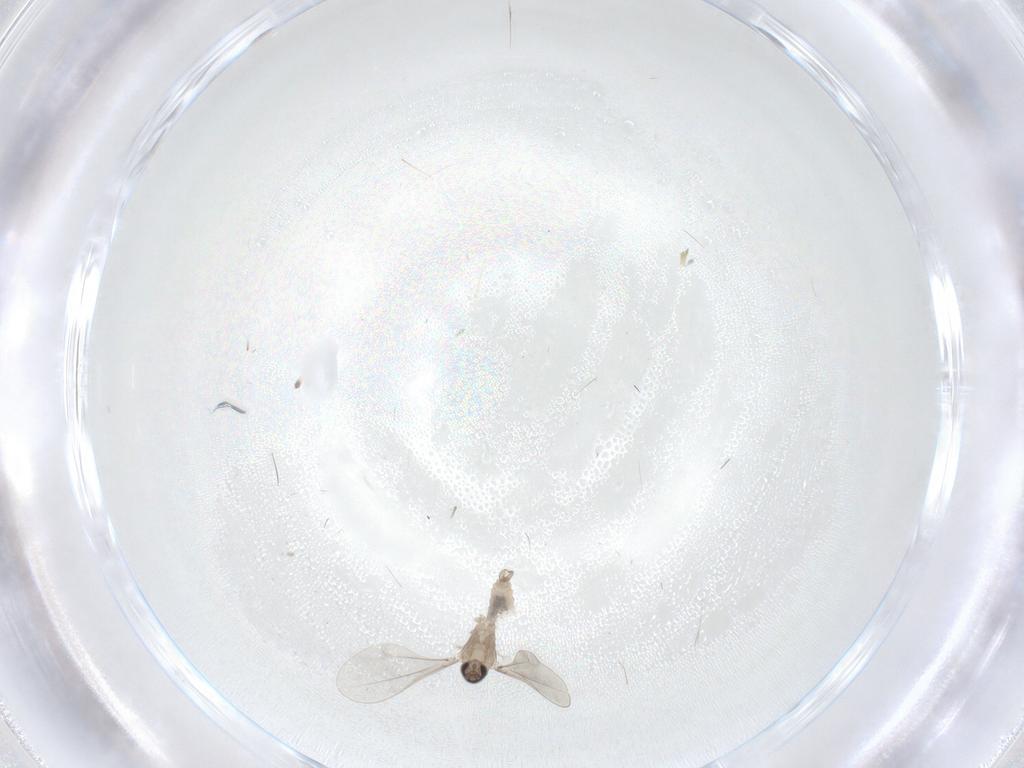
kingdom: Animalia
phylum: Arthropoda
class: Insecta
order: Diptera
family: Cecidomyiidae
